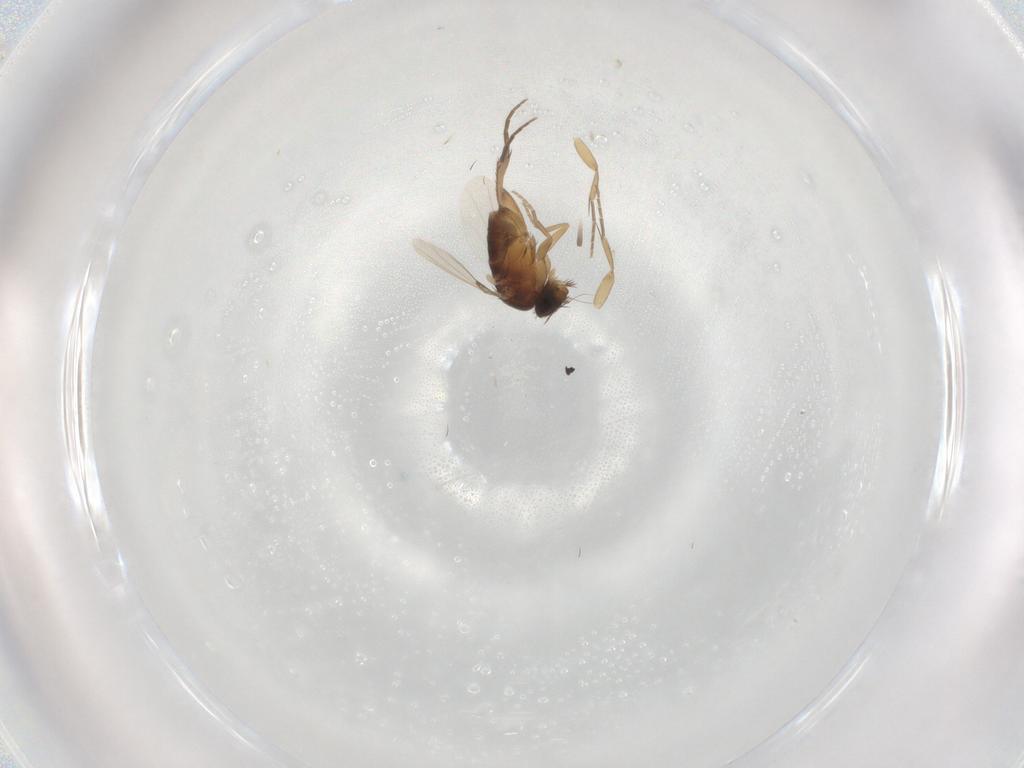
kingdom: Animalia
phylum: Arthropoda
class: Insecta
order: Diptera
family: Phoridae
